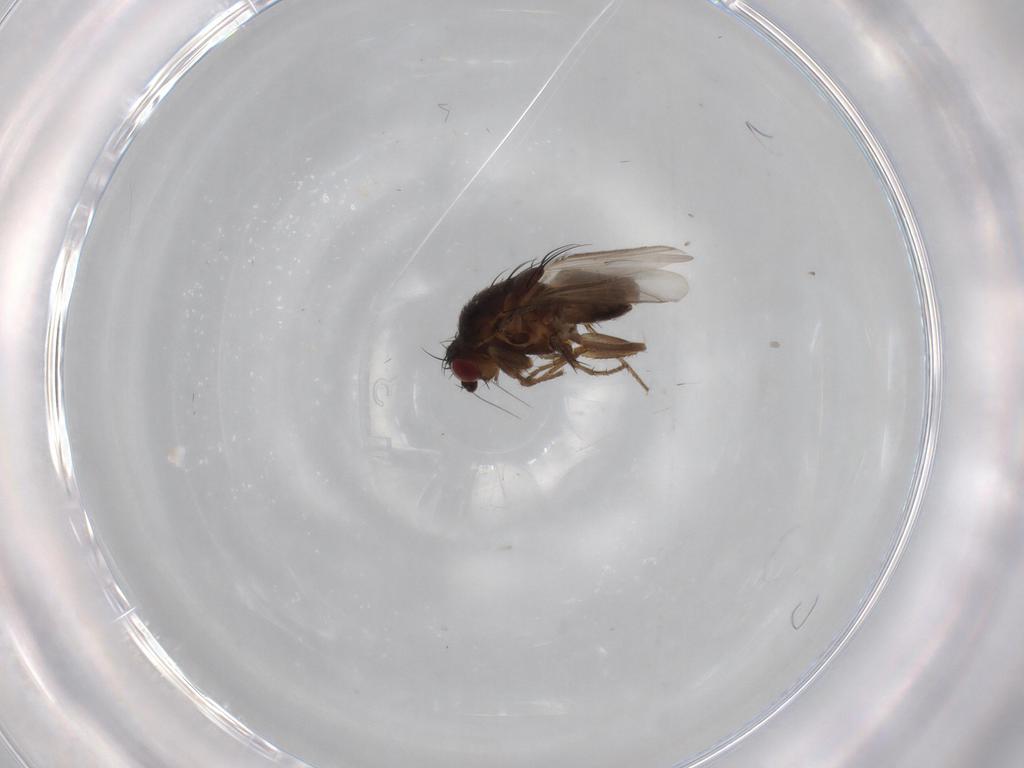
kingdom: Animalia
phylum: Arthropoda
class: Insecta
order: Diptera
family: Sphaeroceridae
